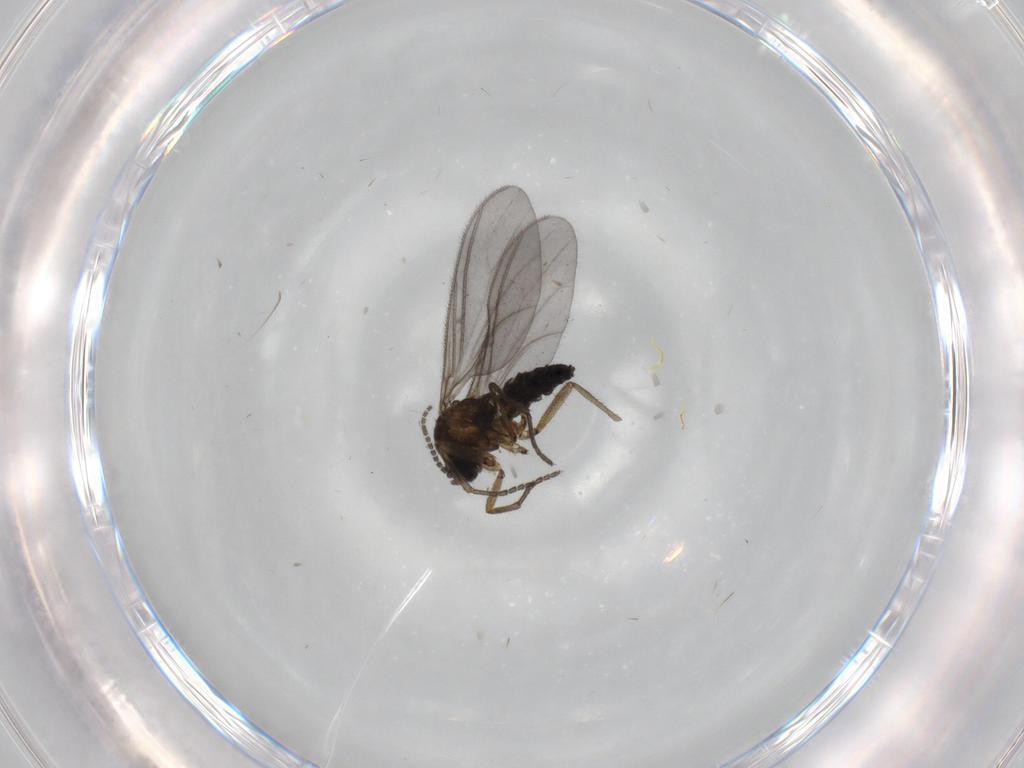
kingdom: Animalia
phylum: Arthropoda
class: Insecta
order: Diptera
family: Sciaridae
